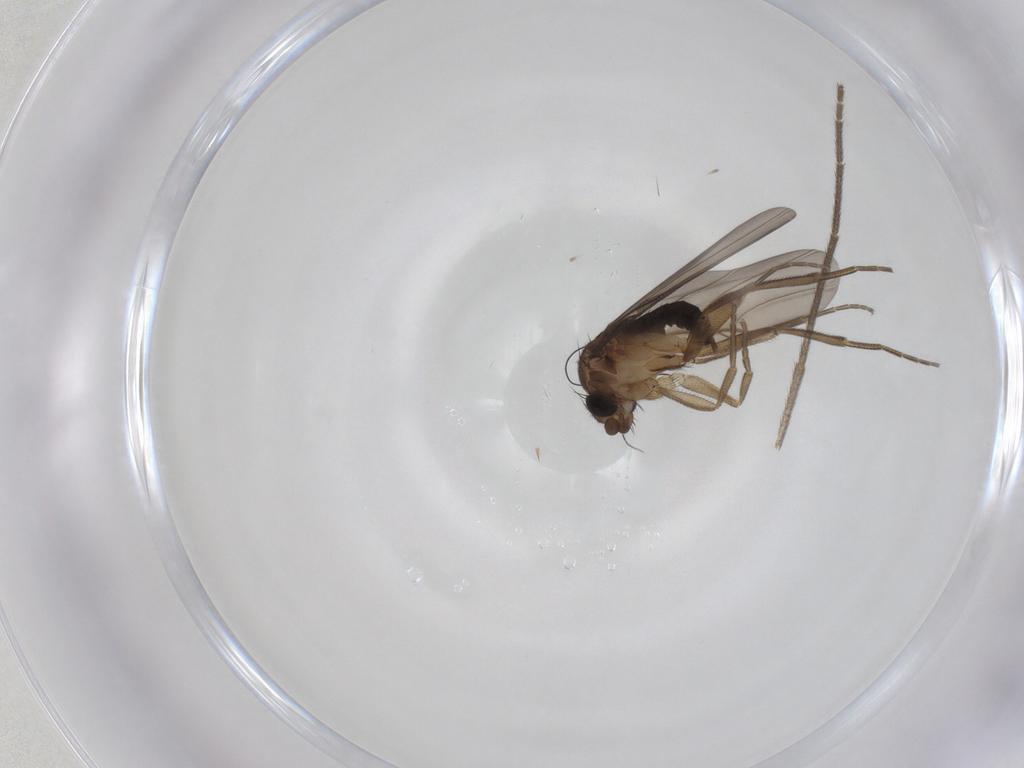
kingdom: Animalia
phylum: Arthropoda
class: Insecta
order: Diptera
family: Phoridae
